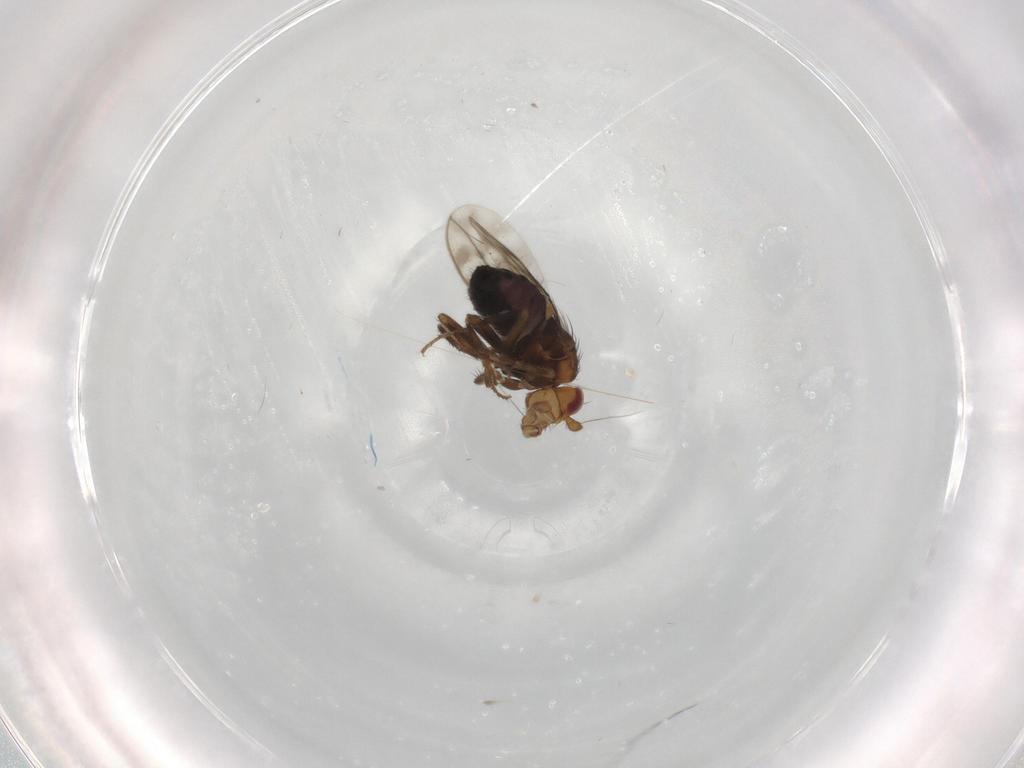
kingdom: Animalia
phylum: Arthropoda
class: Insecta
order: Diptera
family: Sphaeroceridae
